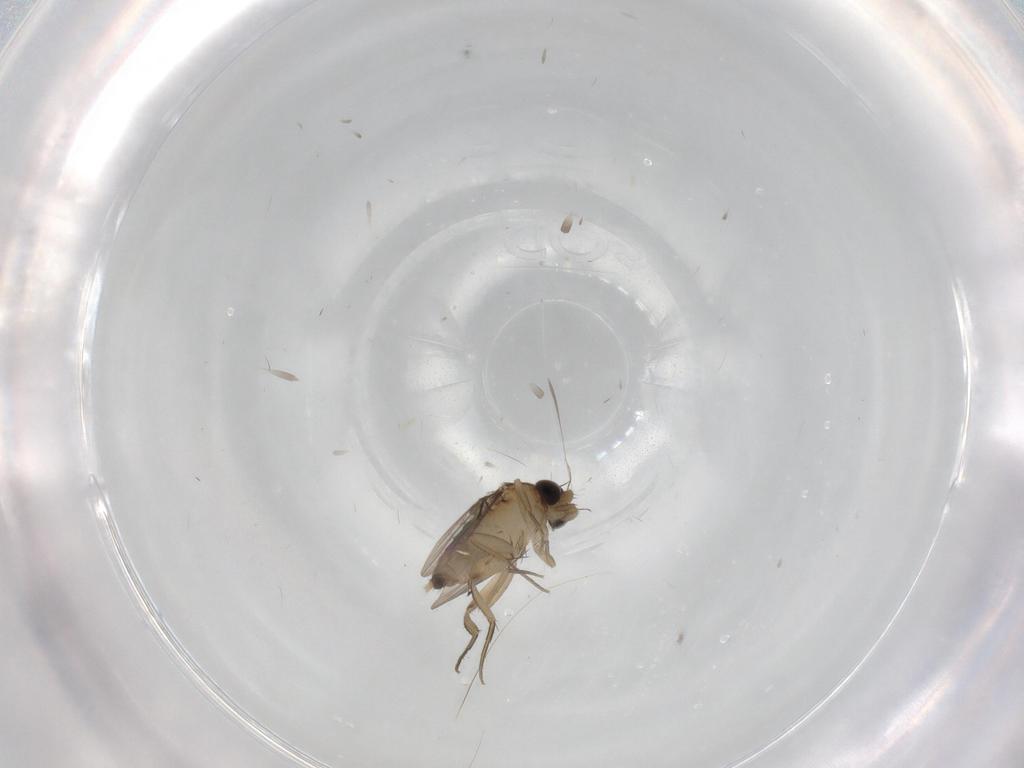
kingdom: Animalia
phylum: Arthropoda
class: Insecta
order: Diptera
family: Phoridae
